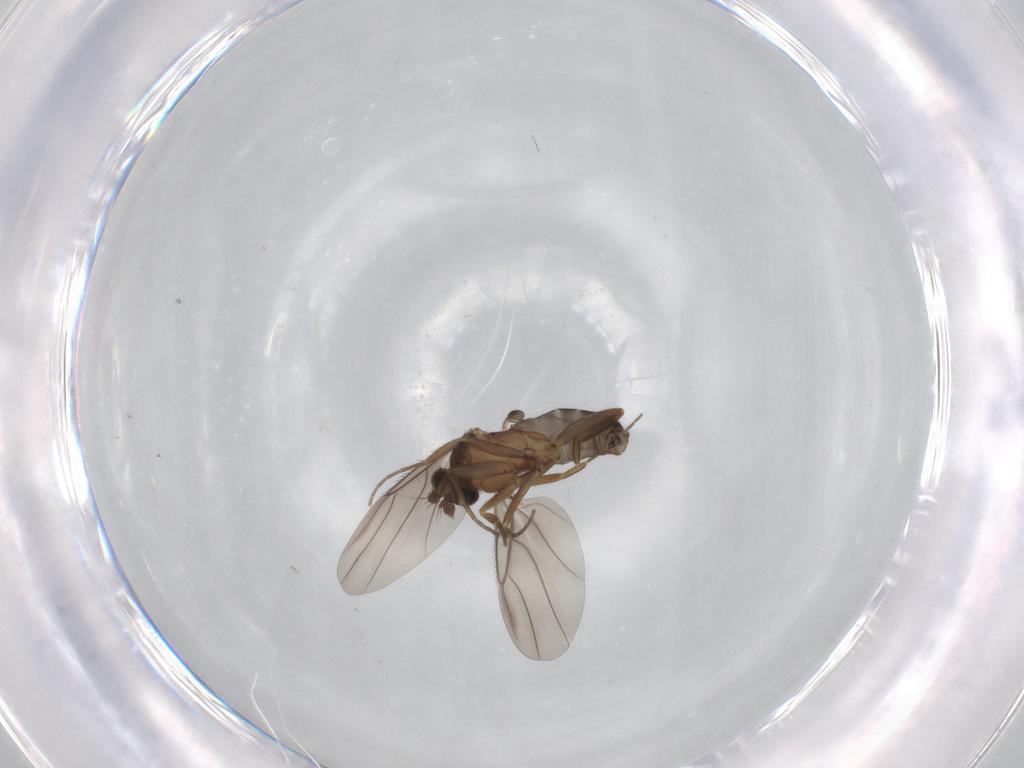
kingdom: Animalia
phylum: Arthropoda
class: Insecta
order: Diptera
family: Phoridae
